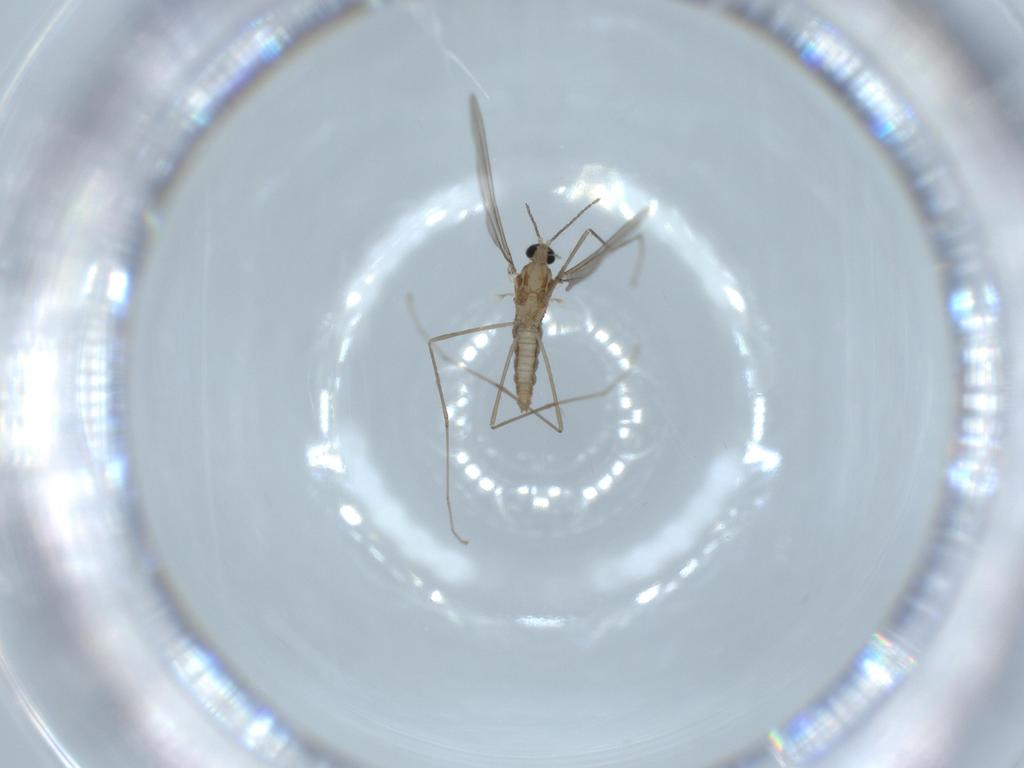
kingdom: Animalia
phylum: Arthropoda
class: Insecta
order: Diptera
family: Cecidomyiidae
